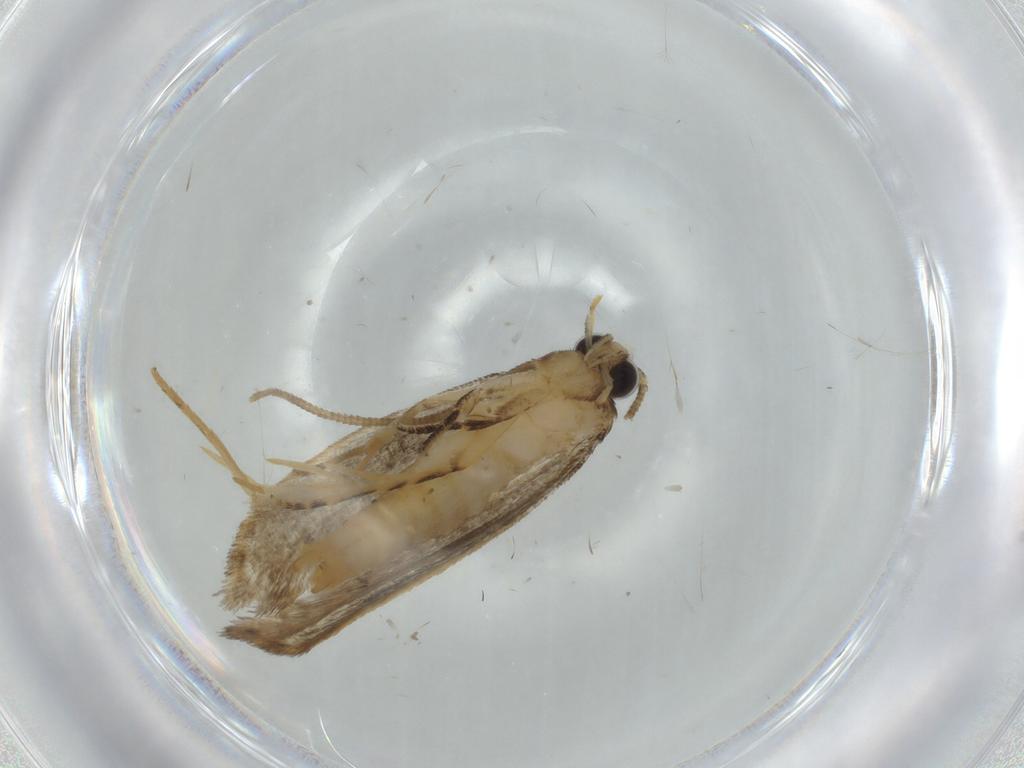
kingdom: Animalia
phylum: Arthropoda
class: Insecta
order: Lepidoptera
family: Tineidae
